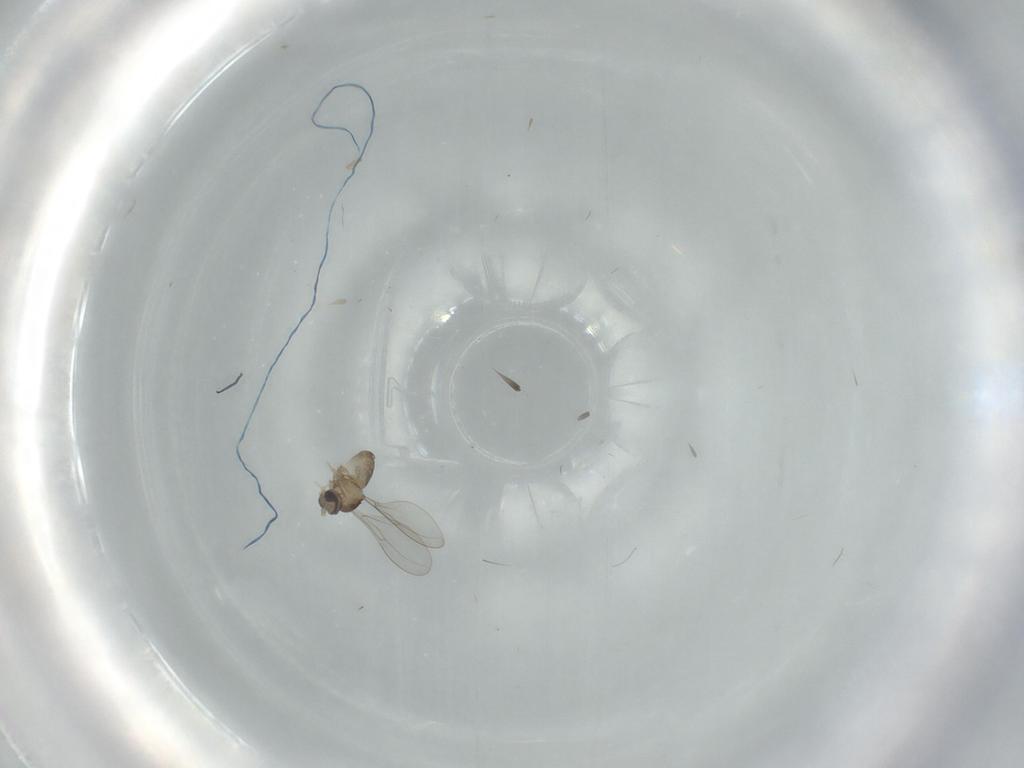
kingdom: Animalia
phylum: Arthropoda
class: Insecta
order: Diptera
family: Cecidomyiidae
